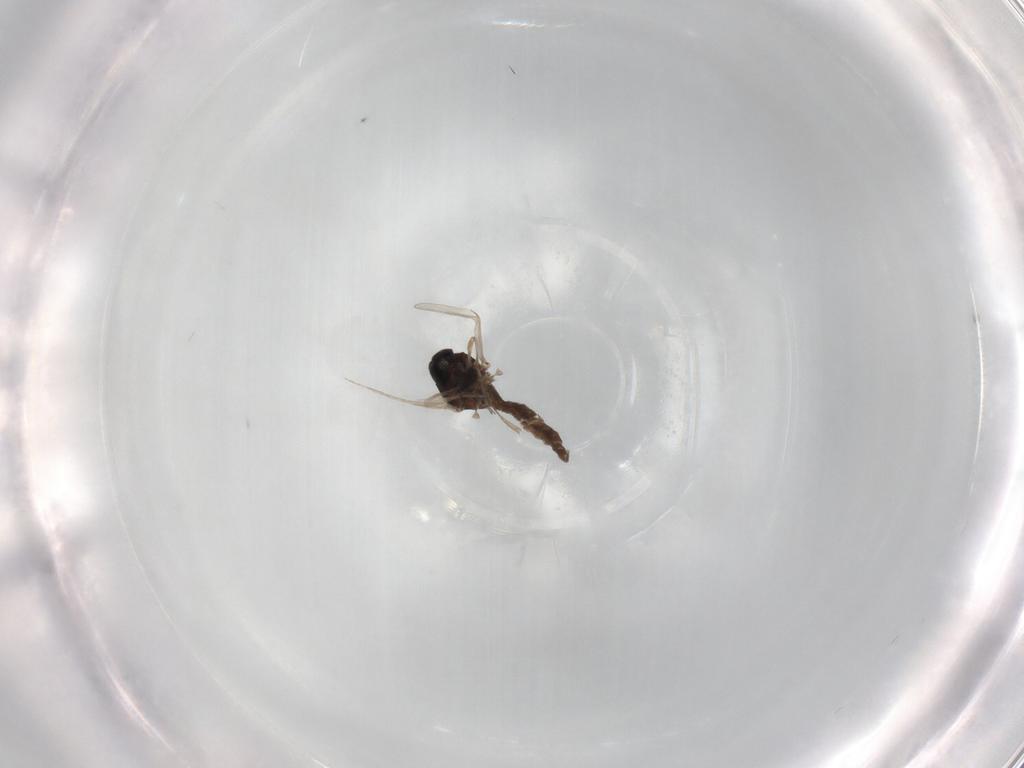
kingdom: Animalia
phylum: Arthropoda
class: Insecta
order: Diptera
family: Ceratopogonidae
